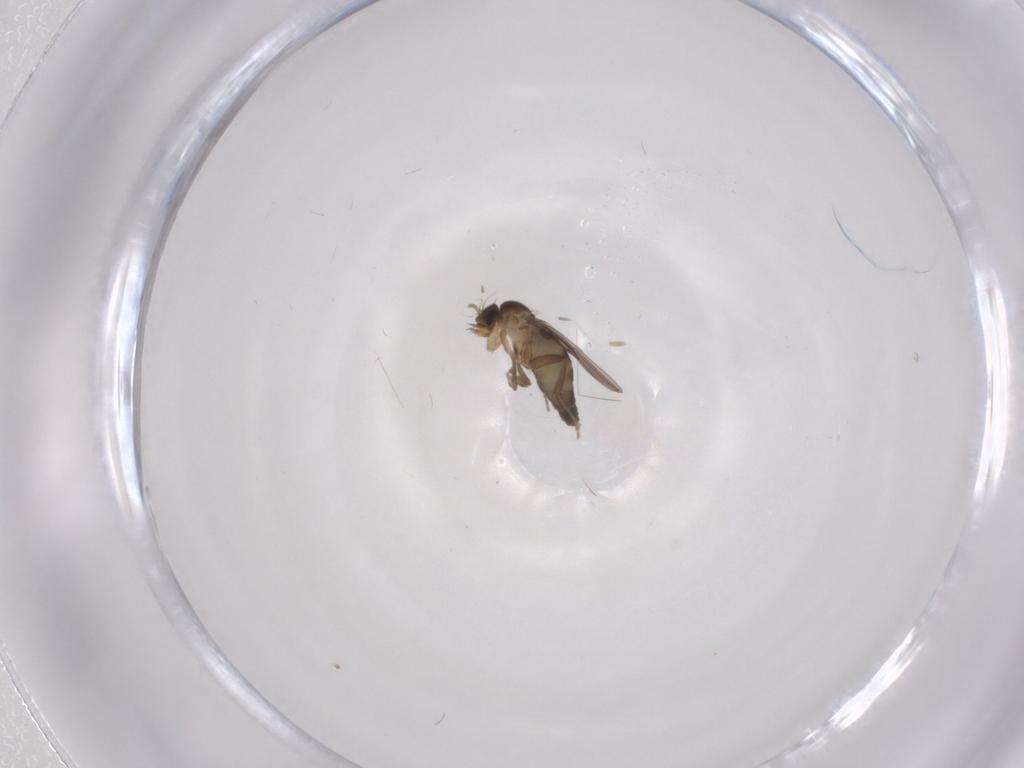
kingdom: Animalia
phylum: Arthropoda
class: Insecta
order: Diptera
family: Phoridae
